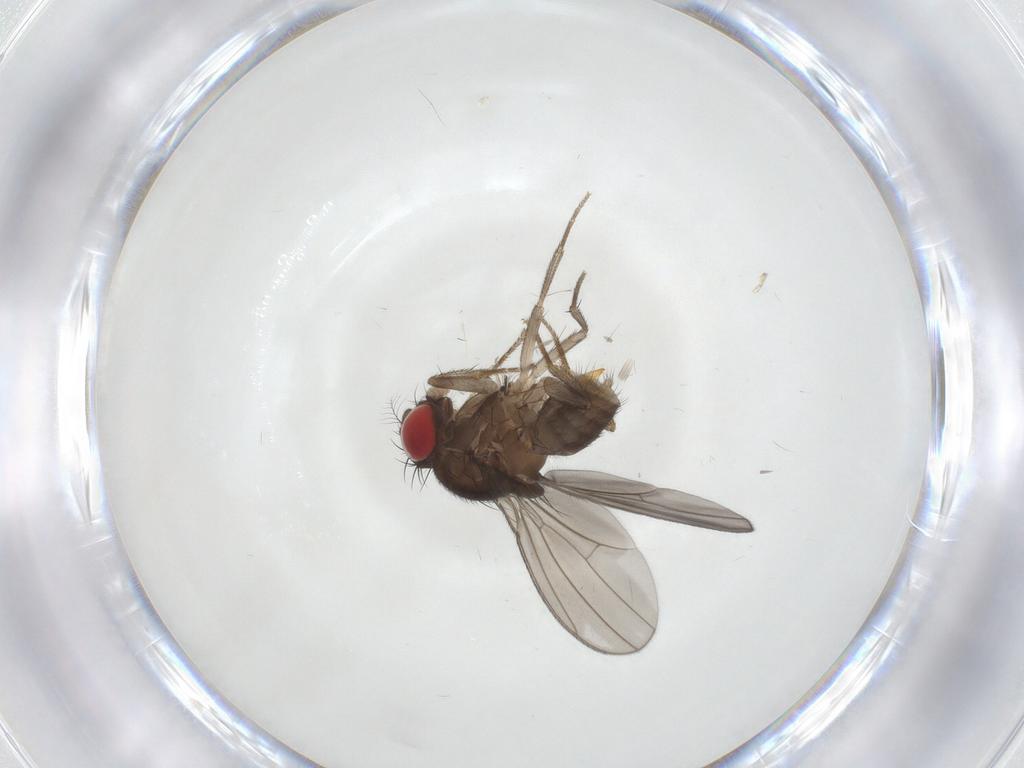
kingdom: Animalia
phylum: Arthropoda
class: Insecta
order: Diptera
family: Drosophilidae
